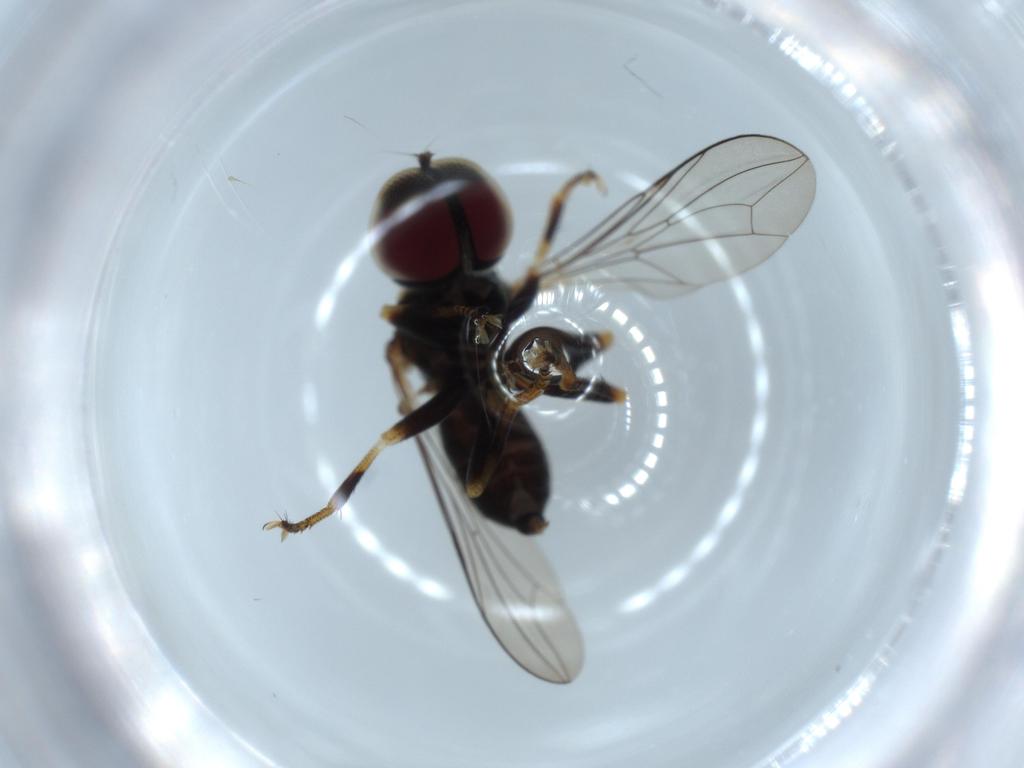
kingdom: Animalia
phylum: Arthropoda
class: Insecta
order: Diptera
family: Pipunculidae
